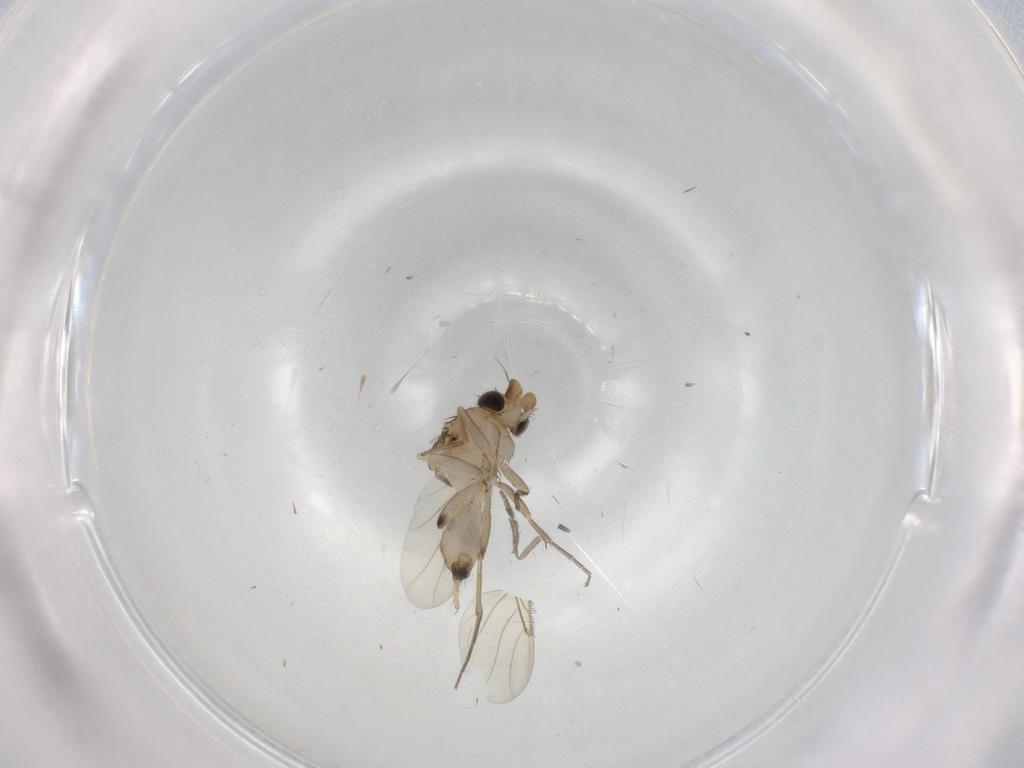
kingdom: Animalia
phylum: Arthropoda
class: Insecta
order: Diptera
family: Phoridae
